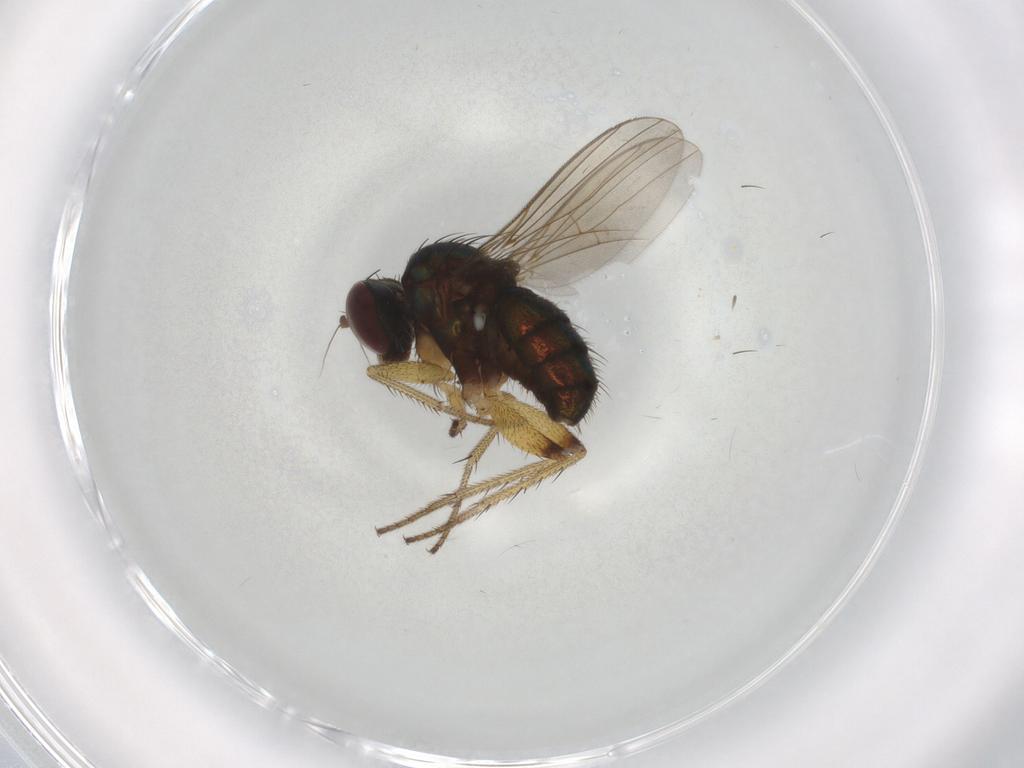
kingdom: Animalia
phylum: Arthropoda
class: Insecta
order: Diptera
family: Dolichopodidae
